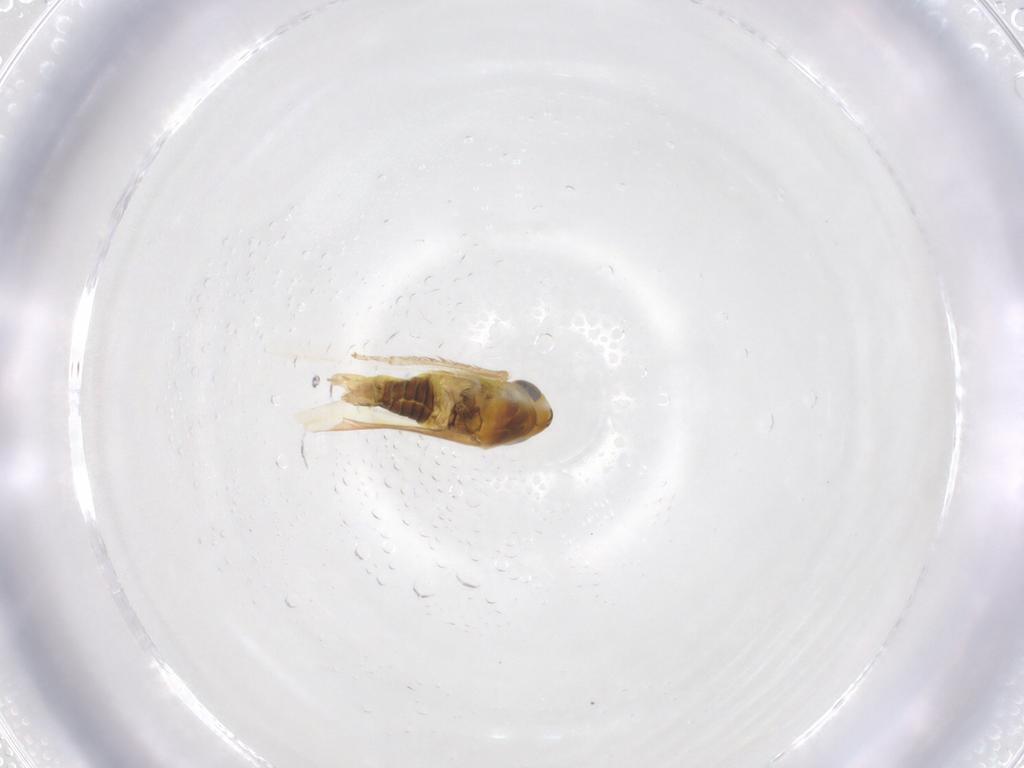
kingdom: Animalia
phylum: Arthropoda
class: Insecta
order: Hemiptera
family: Cicadellidae
